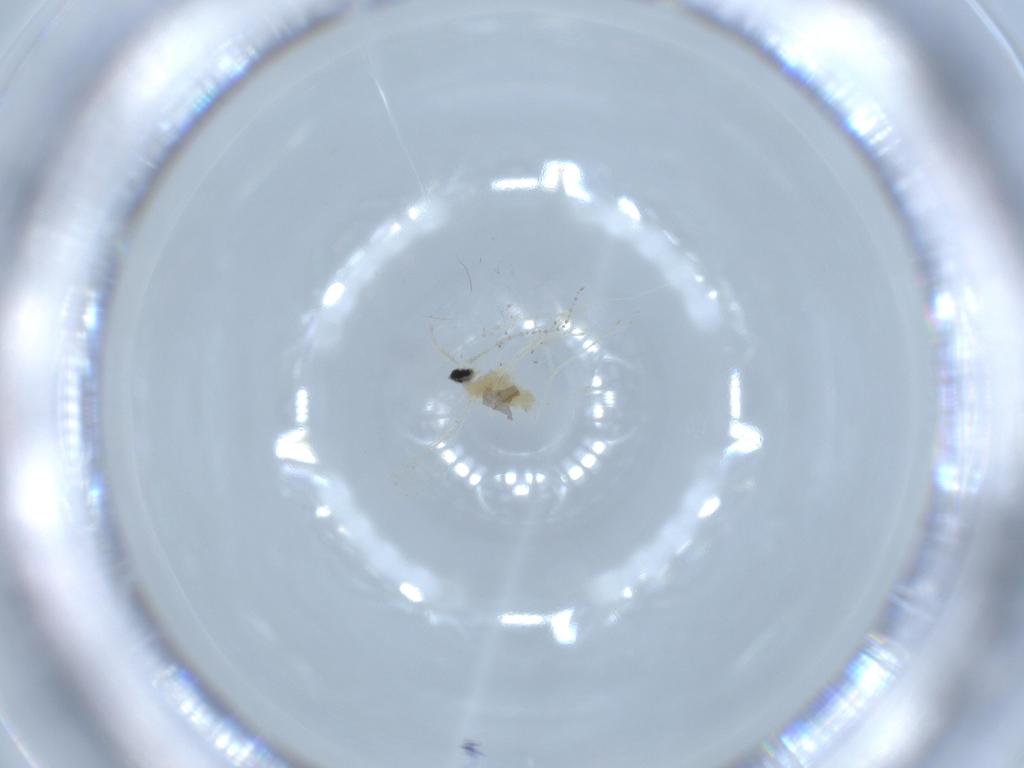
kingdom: Animalia
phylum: Arthropoda
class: Insecta
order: Diptera
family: Cecidomyiidae
